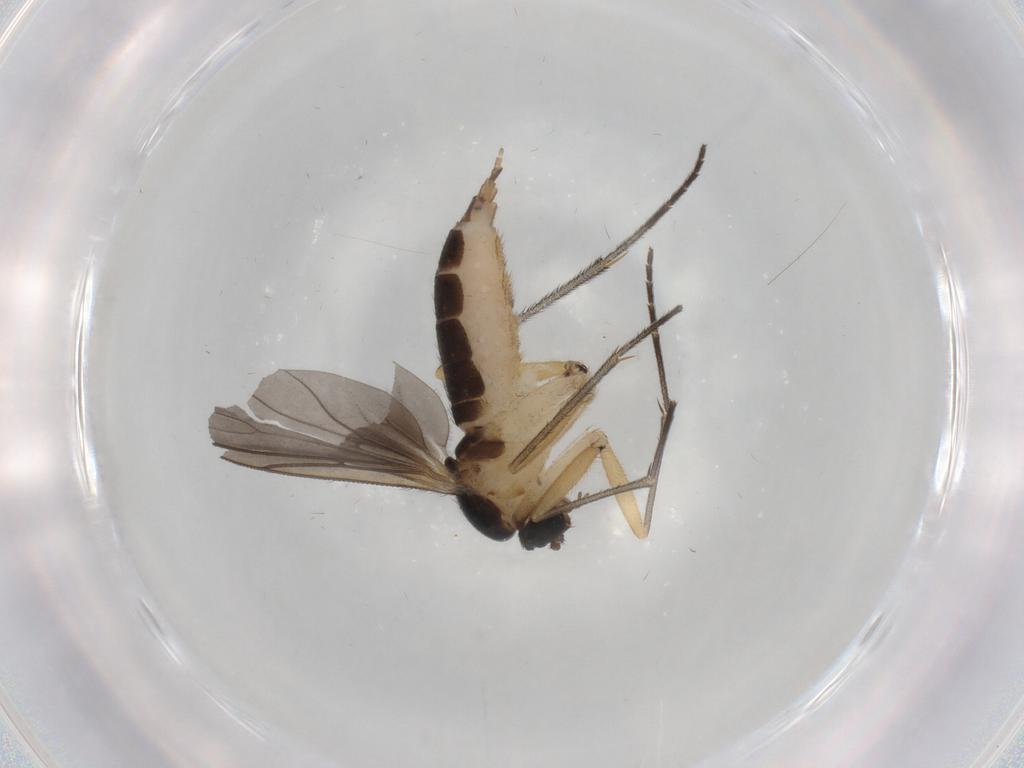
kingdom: Animalia
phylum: Arthropoda
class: Insecta
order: Diptera
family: Sciaridae
